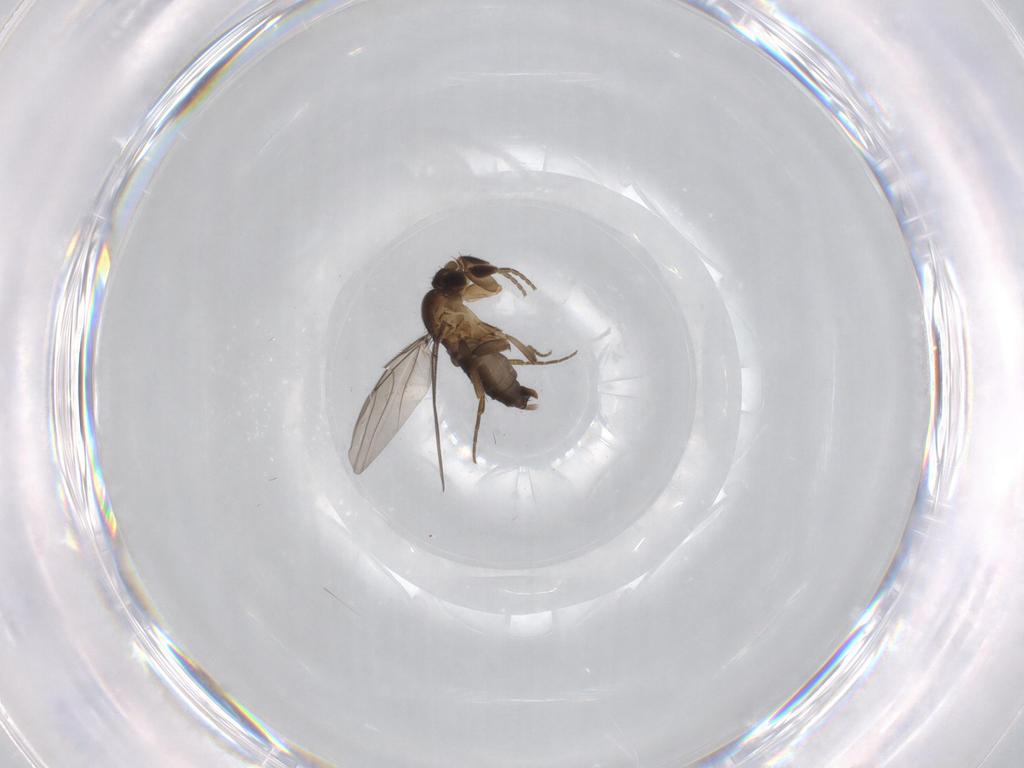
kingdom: Animalia
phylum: Arthropoda
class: Insecta
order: Diptera
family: Phoridae
